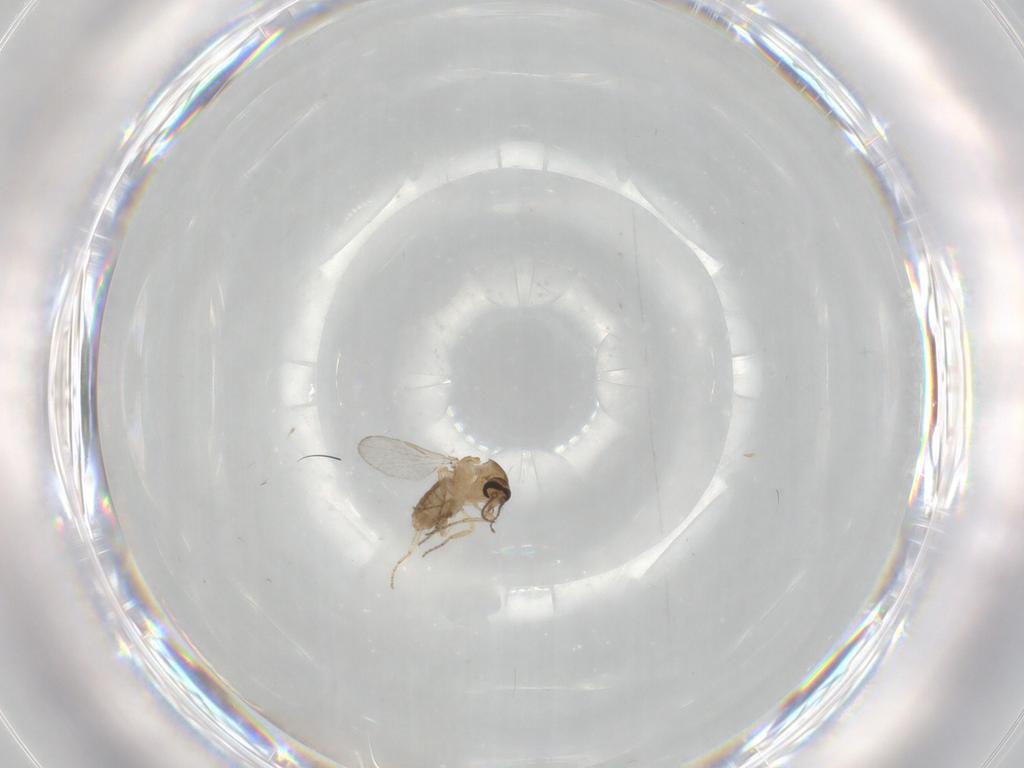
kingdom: Animalia
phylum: Arthropoda
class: Insecta
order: Diptera
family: Ceratopogonidae
